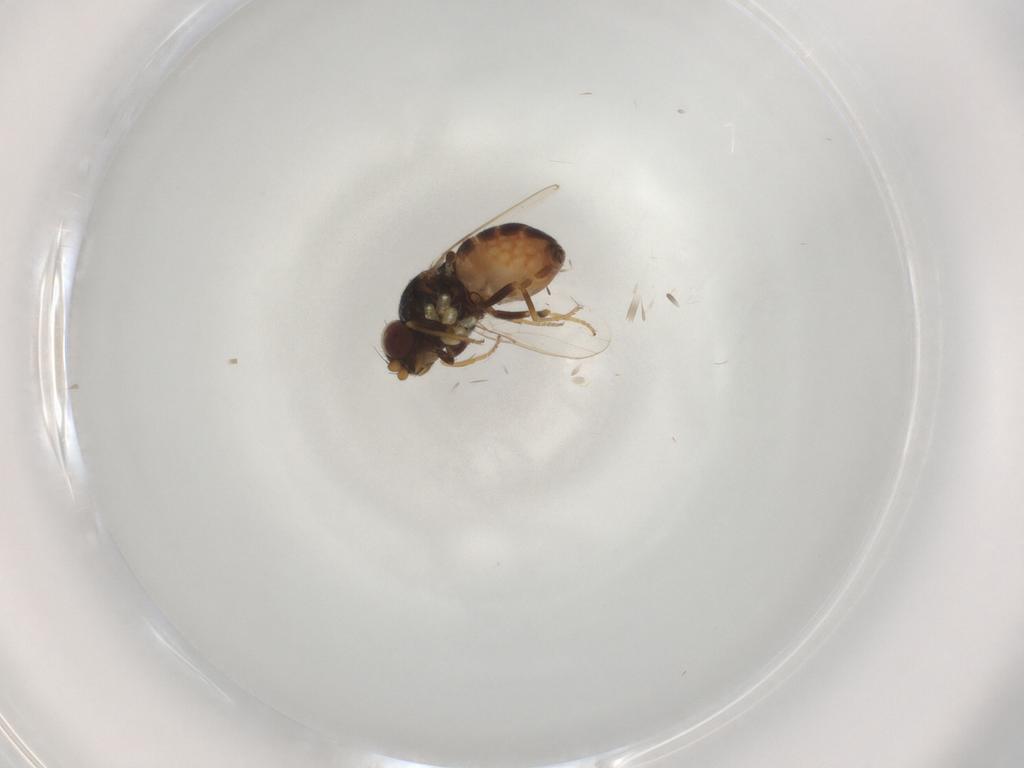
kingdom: Animalia
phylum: Arthropoda
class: Insecta
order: Diptera
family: Chloropidae
